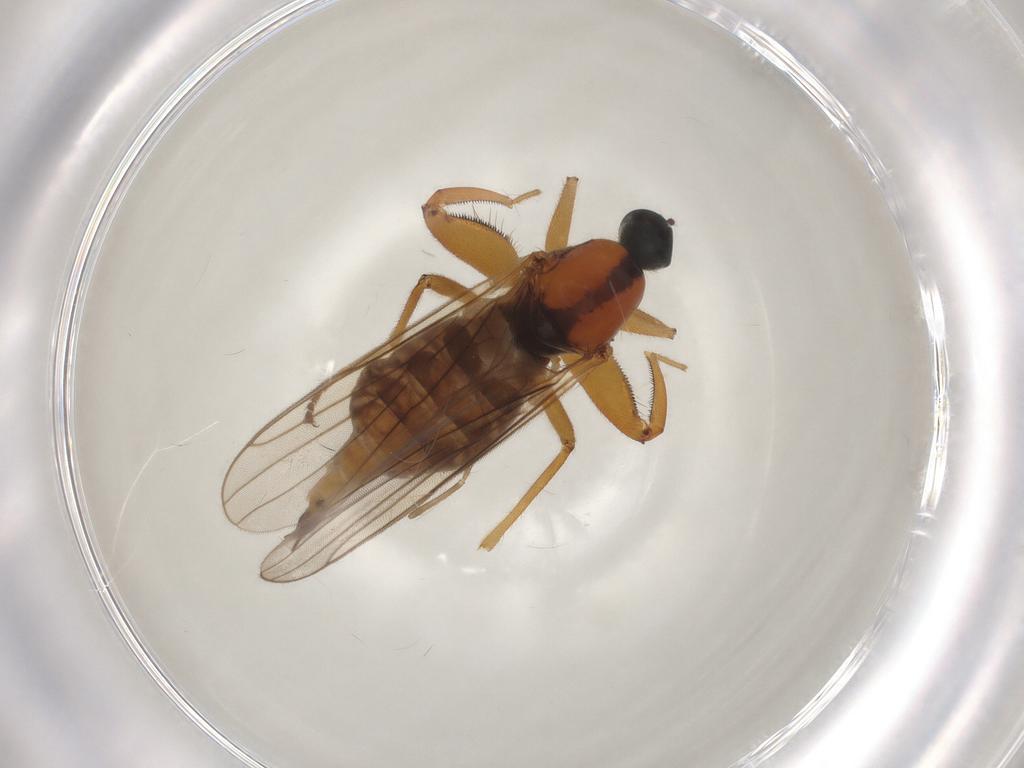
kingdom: Animalia
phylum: Arthropoda
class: Insecta
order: Diptera
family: Hybotidae
